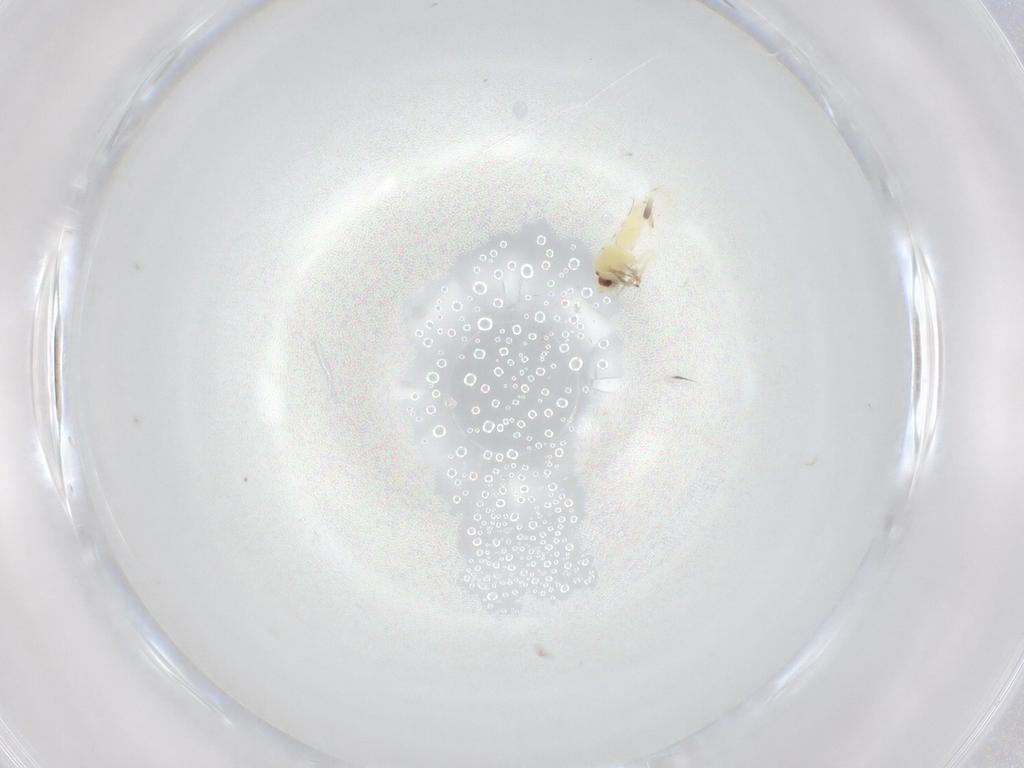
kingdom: Animalia
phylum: Arthropoda
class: Insecta
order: Hemiptera
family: Aleyrodidae
